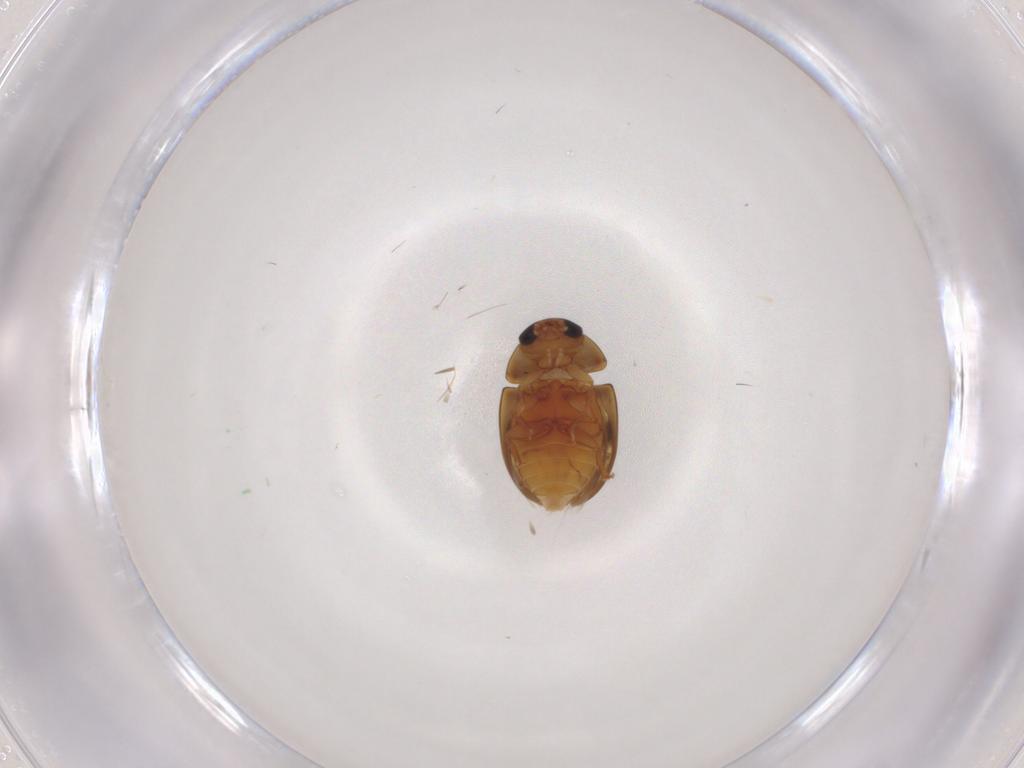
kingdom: Animalia
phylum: Arthropoda
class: Insecta
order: Coleoptera
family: Phalacridae
